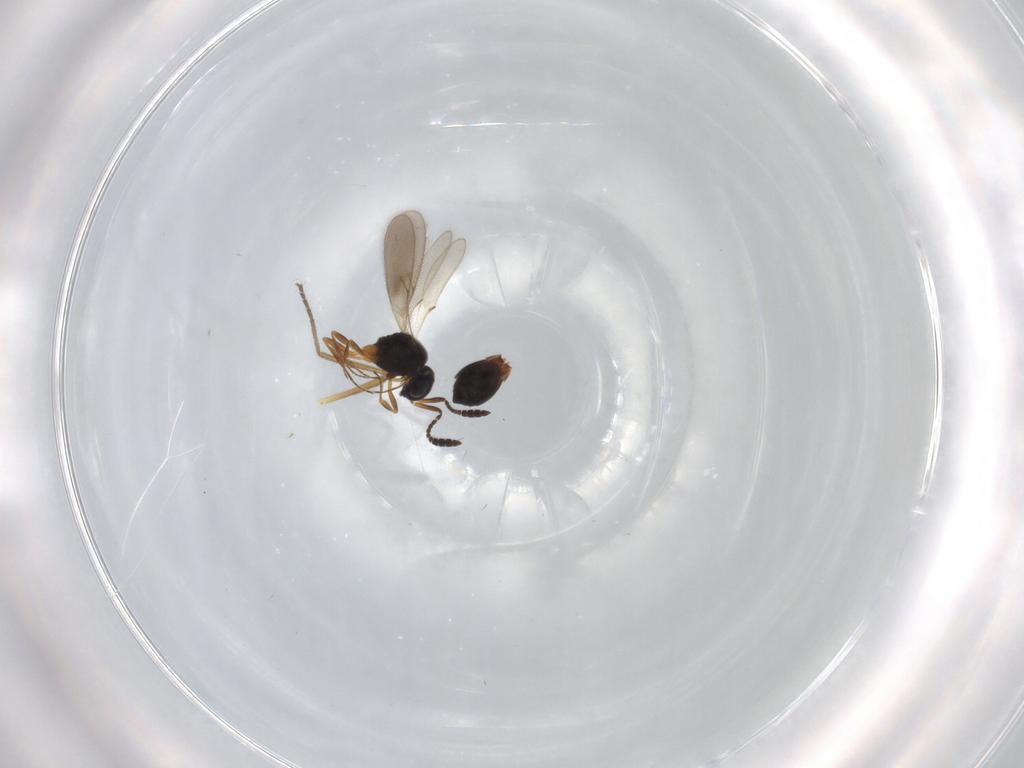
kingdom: Animalia
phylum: Arthropoda
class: Insecta
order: Hymenoptera
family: Scelionidae
